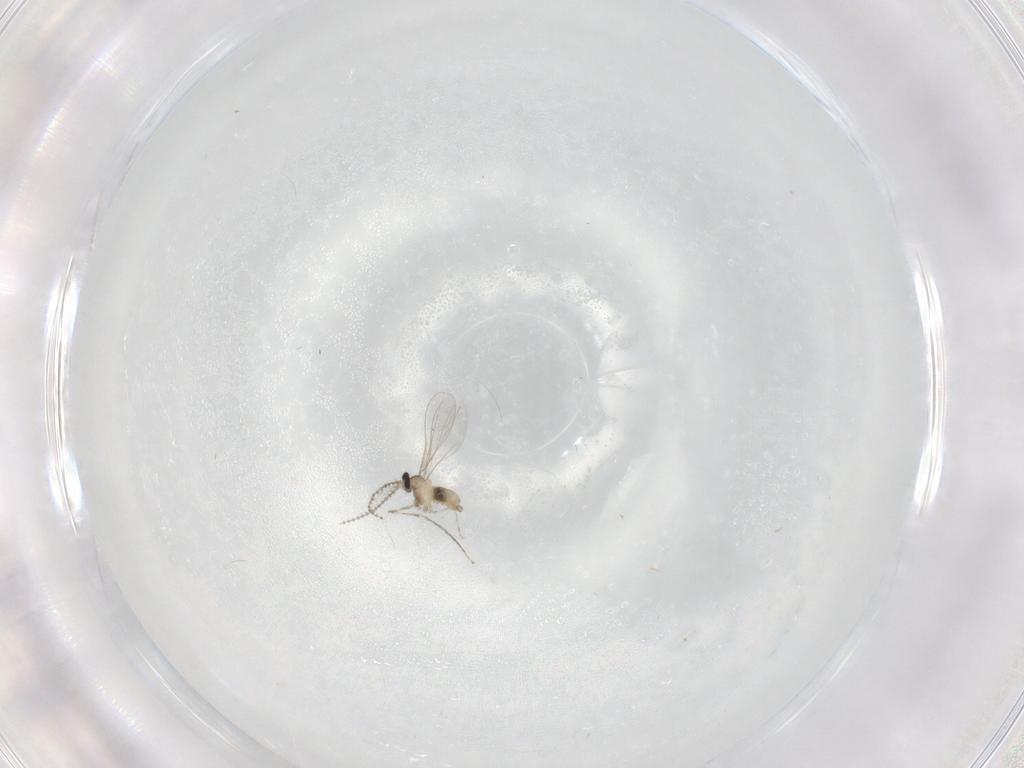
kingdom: Animalia
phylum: Arthropoda
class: Insecta
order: Diptera
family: Cecidomyiidae
